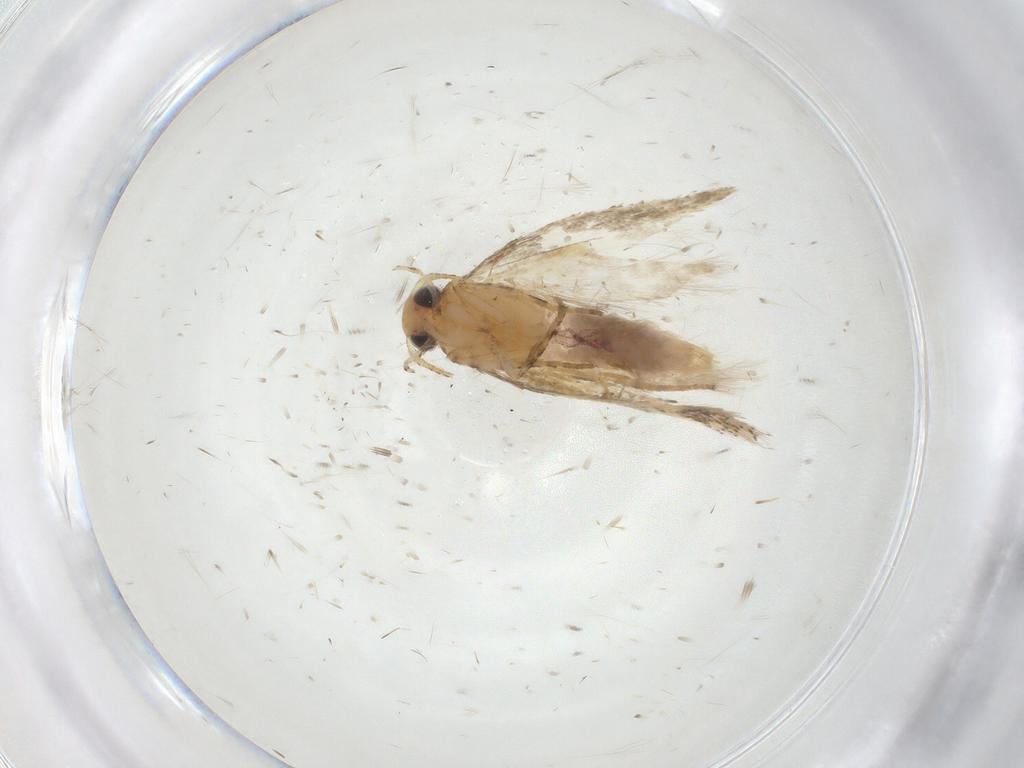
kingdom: Animalia
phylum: Arthropoda
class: Insecta
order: Lepidoptera
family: Gelechiidae
